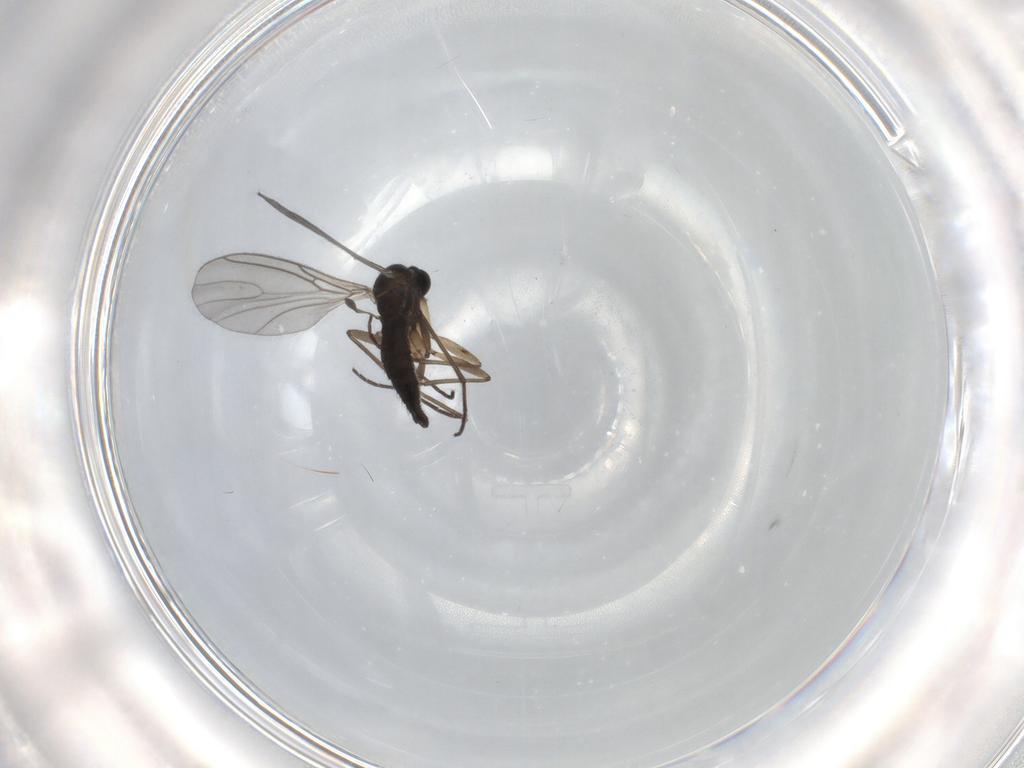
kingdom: Animalia
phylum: Arthropoda
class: Insecta
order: Diptera
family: Sciaridae
